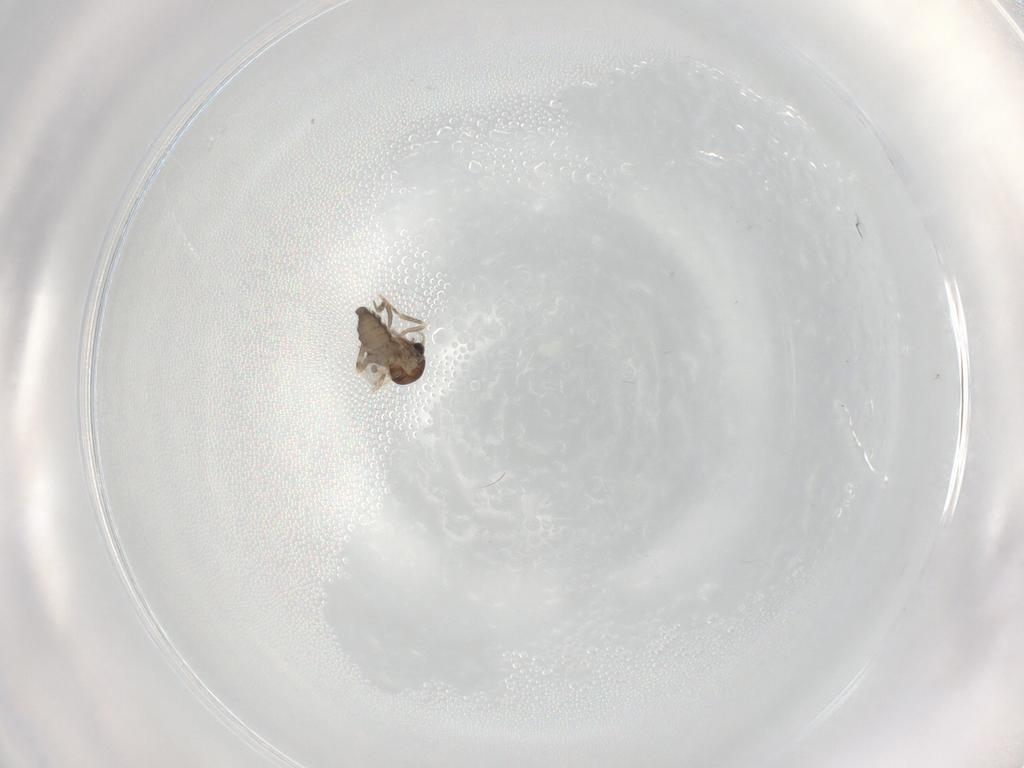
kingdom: Animalia
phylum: Arthropoda
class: Insecta
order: Diptera
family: Ceratopogonidae
